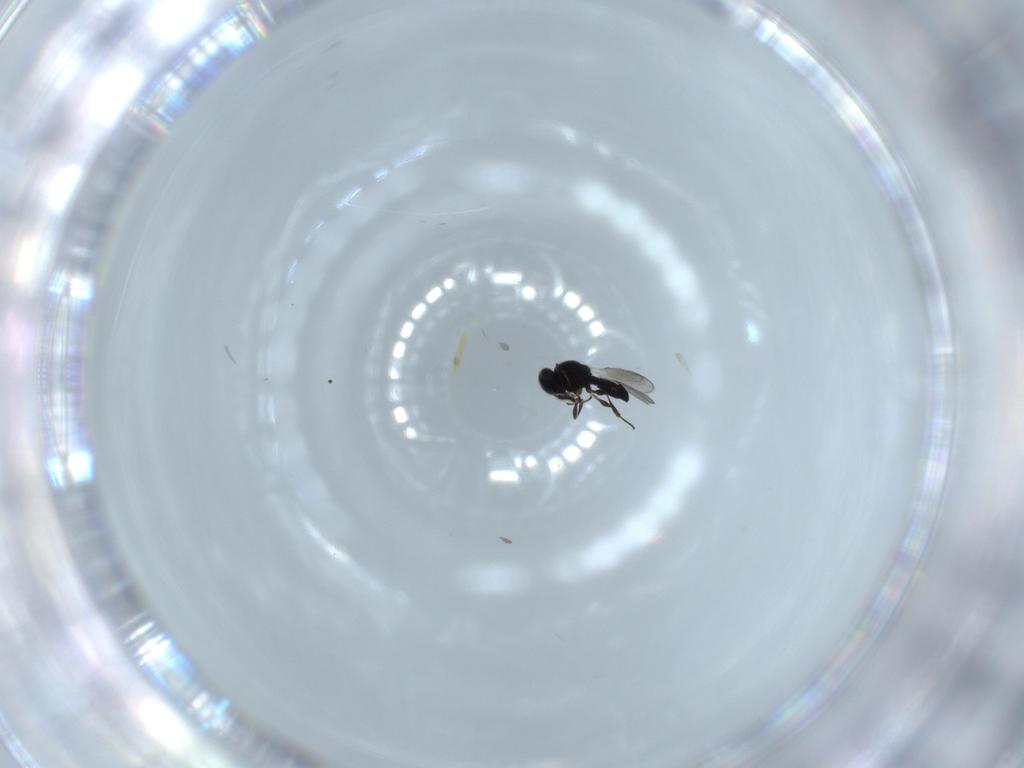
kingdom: Animalia
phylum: Arthropoda
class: Insecta
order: Hymenoptera
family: Platygastridae
